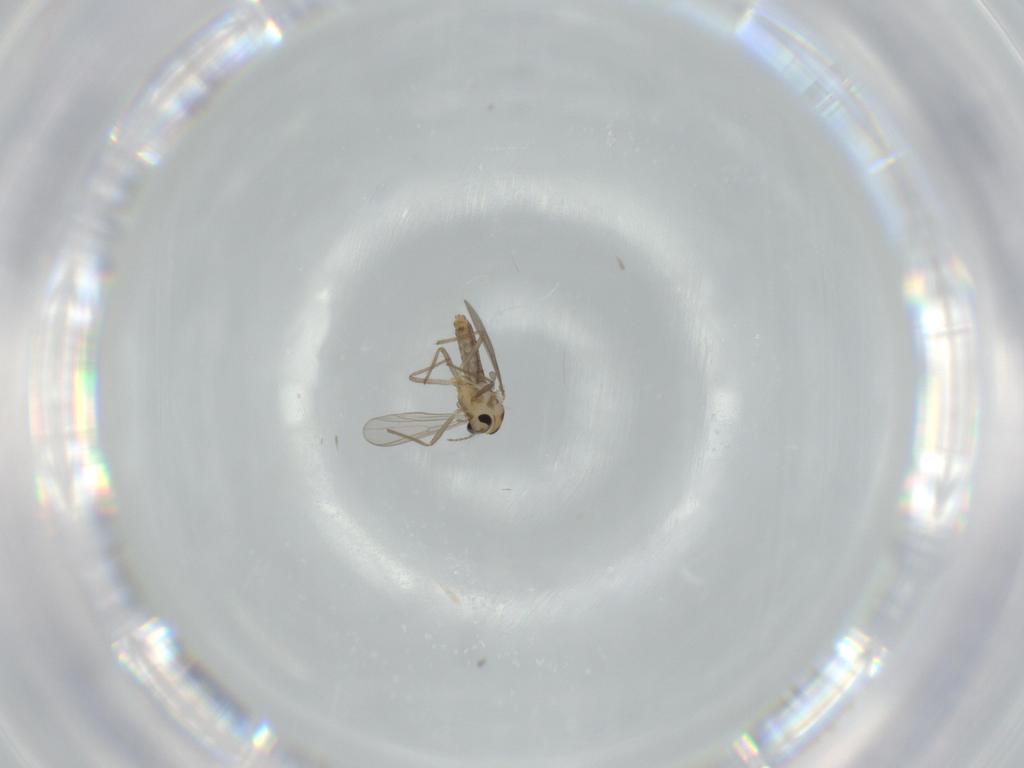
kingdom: Animalia
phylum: Arthropoda
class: Insecta
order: Diptera
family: Chironomidae
